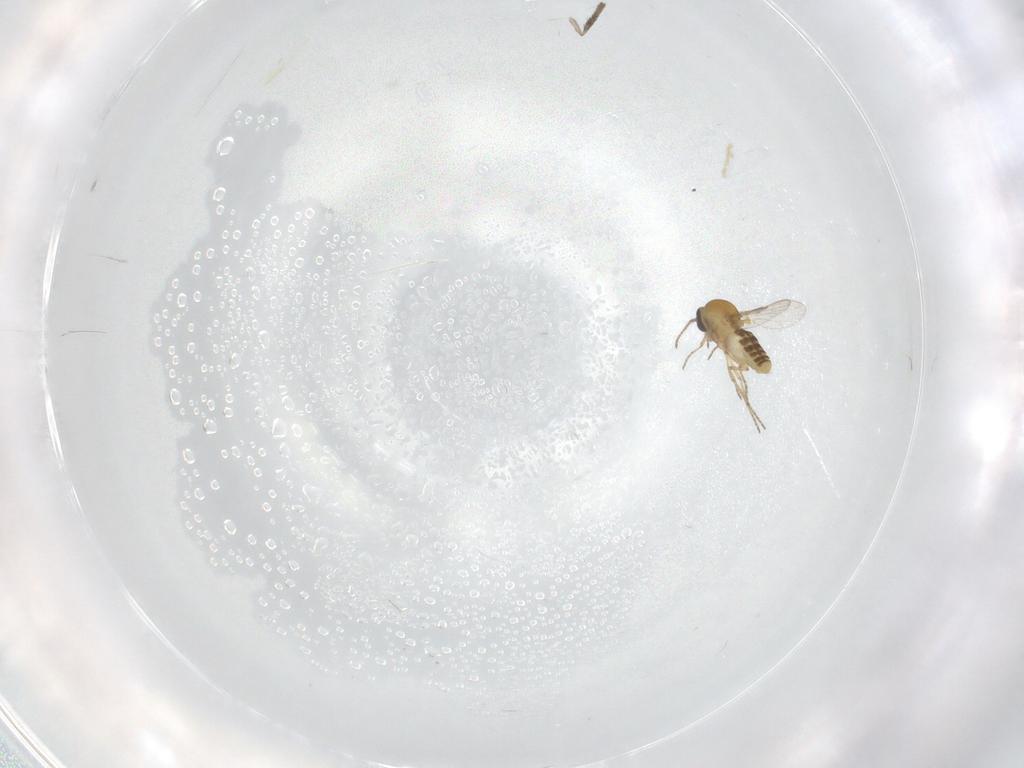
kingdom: Animalia
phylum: Arthropoda
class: Insecta
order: Diptera
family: Ceratopogonidae
